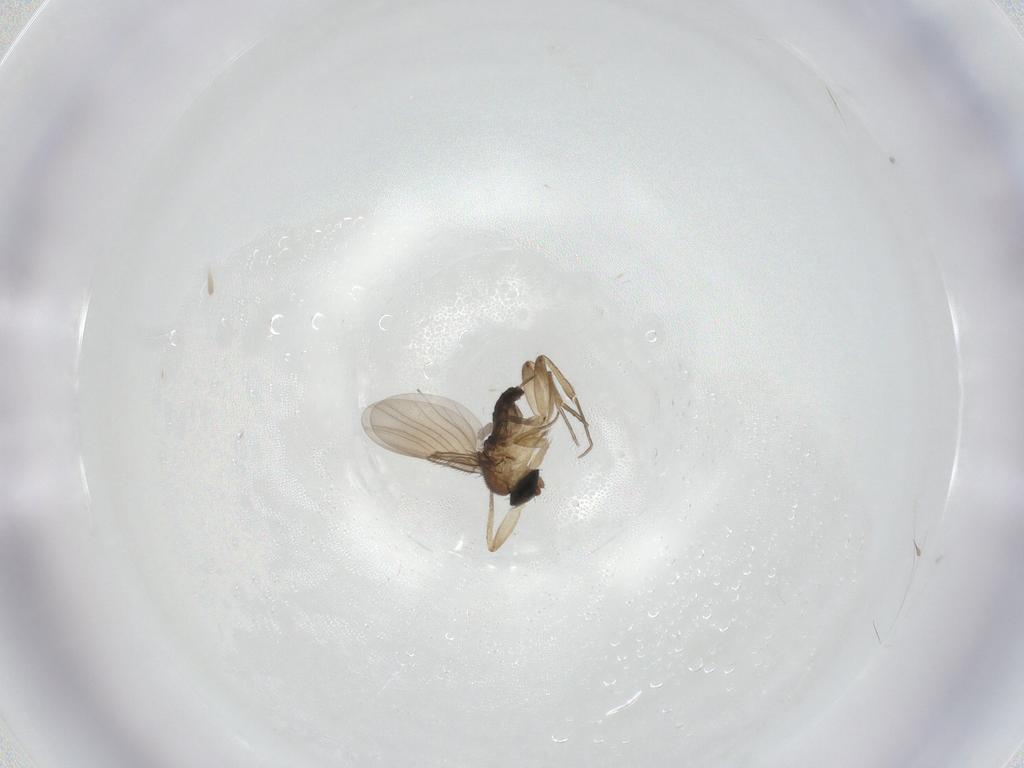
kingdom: Animalia
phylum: Arthropoda
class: Insecta
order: Diptera
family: Phoridae
